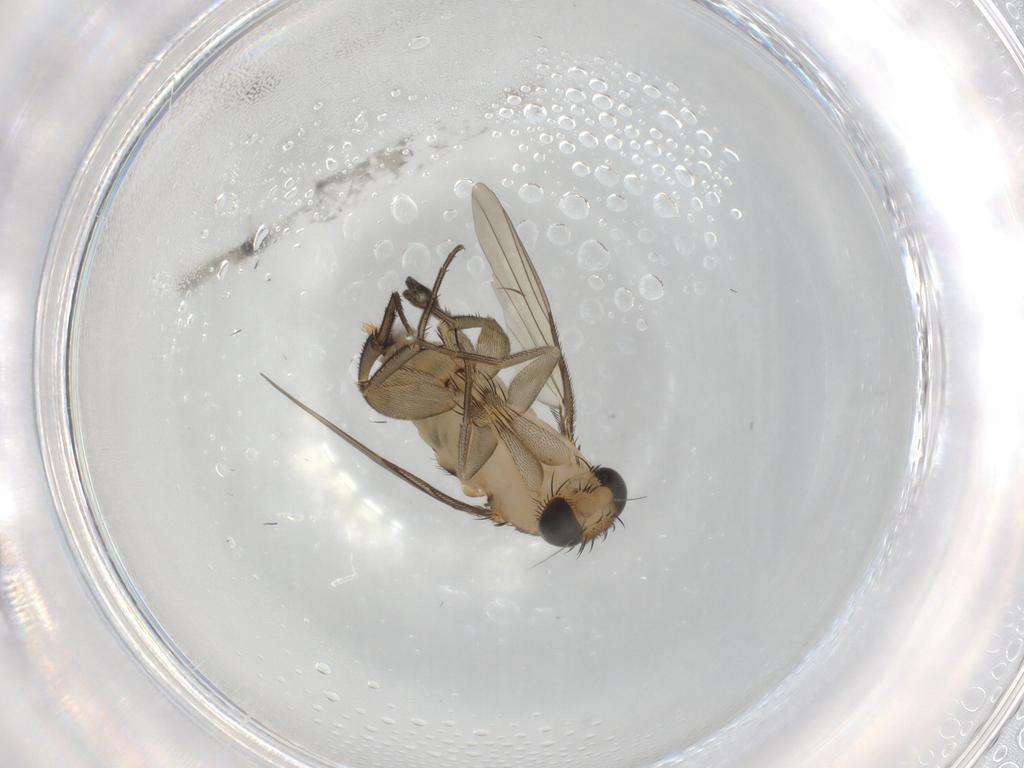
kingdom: Animalia
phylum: Arthropoda
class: Insecta
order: Diptera
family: Phoridae
